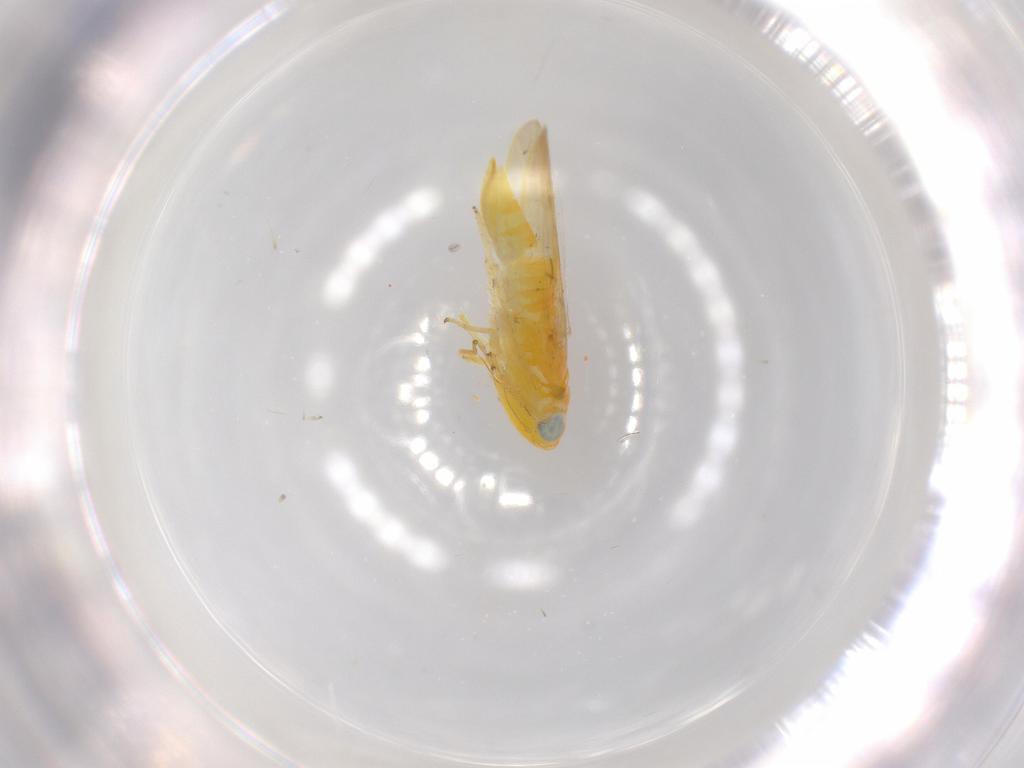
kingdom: Animalia
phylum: Arthropoda
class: Insecta
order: Hemiptera
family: Cicadellidae
